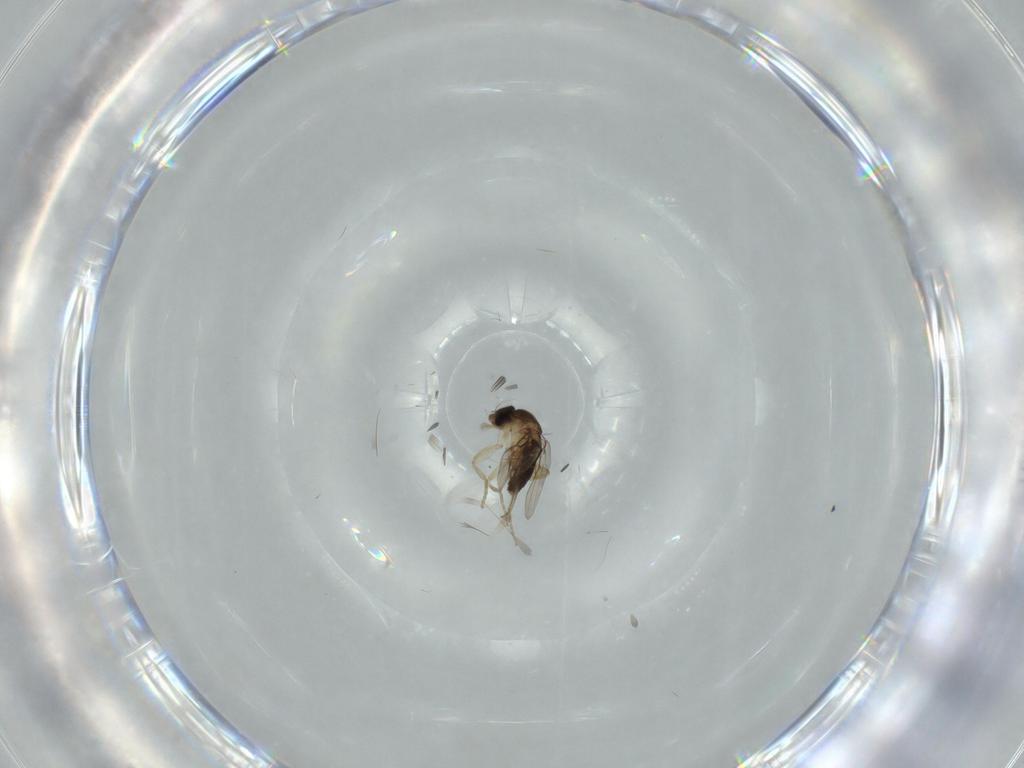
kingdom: Animalia
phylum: Arthropoda
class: Insecta
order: Diptera
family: Phoridae
